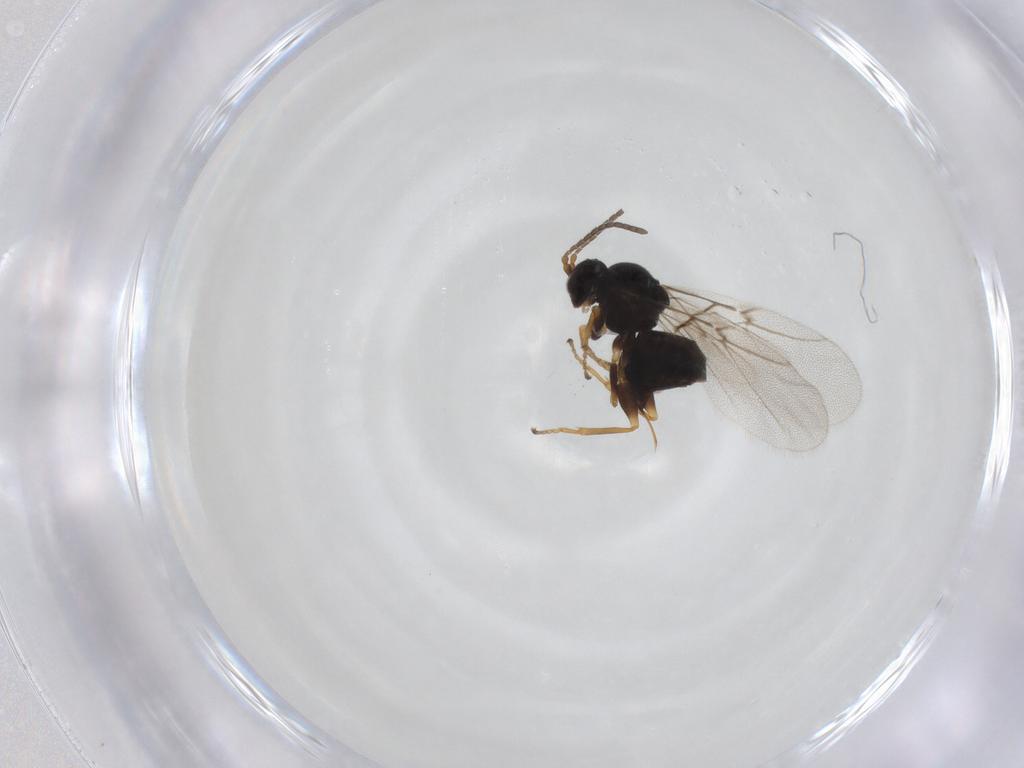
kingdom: Animalia
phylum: Arthropoda
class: Insecta
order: Hymenoptera
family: Cynipidae
